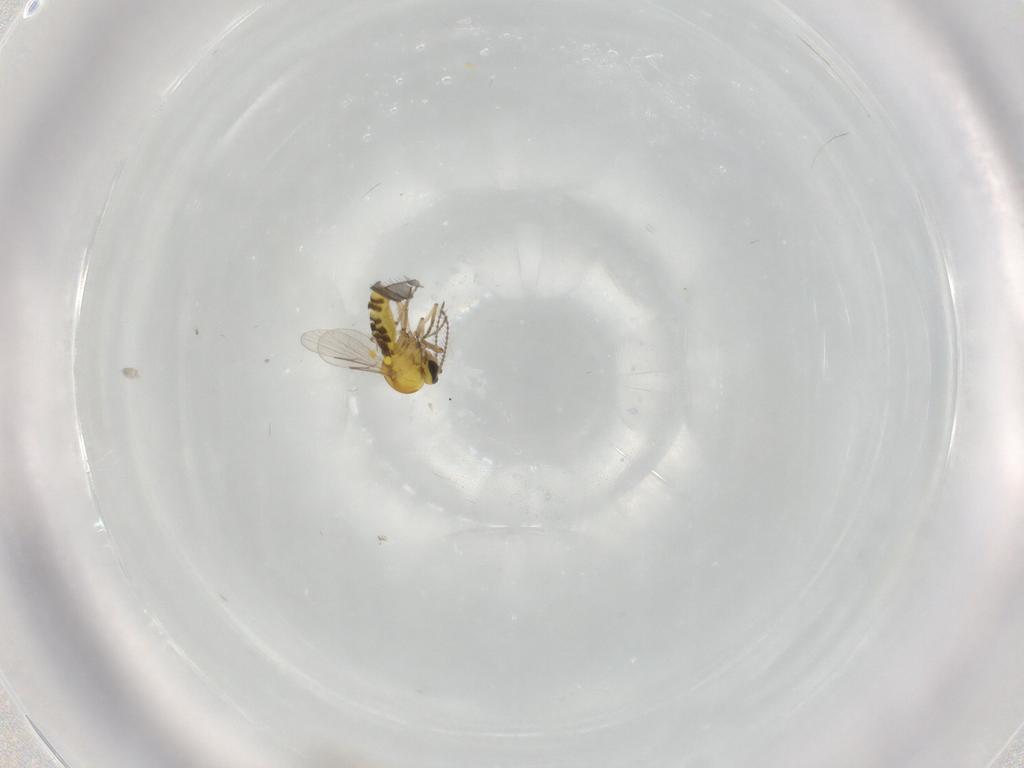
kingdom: Animalia
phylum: Arthropoda
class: Insecta
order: Diptera
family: Cecidomyiidae
